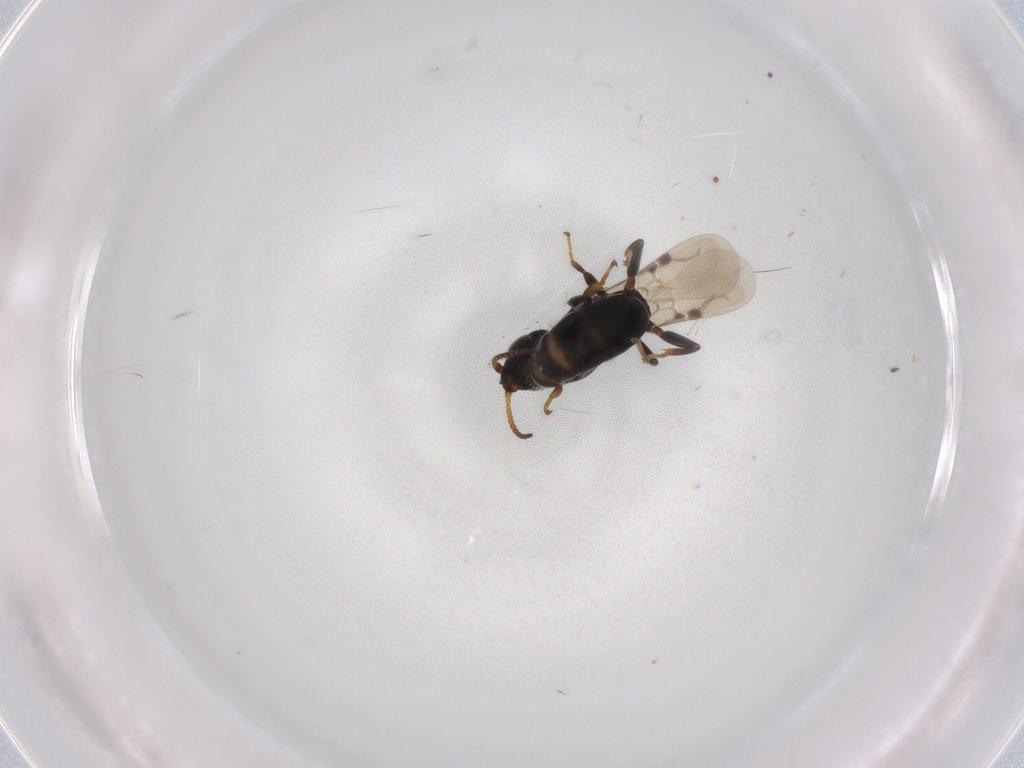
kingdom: Animalia
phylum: Arthropoda
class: Insecta
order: Hymenoptera
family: Bethylidae
